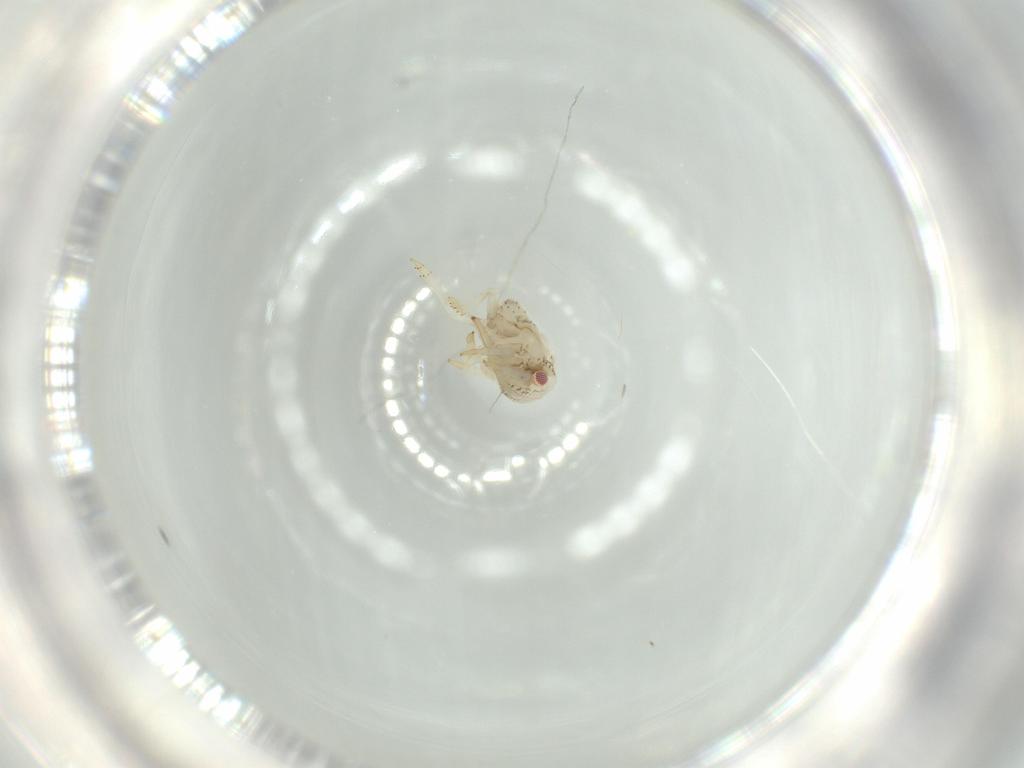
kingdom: Animalia
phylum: Arthropoda
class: Insecta
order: Hemiptera
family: Acanaloniidae
